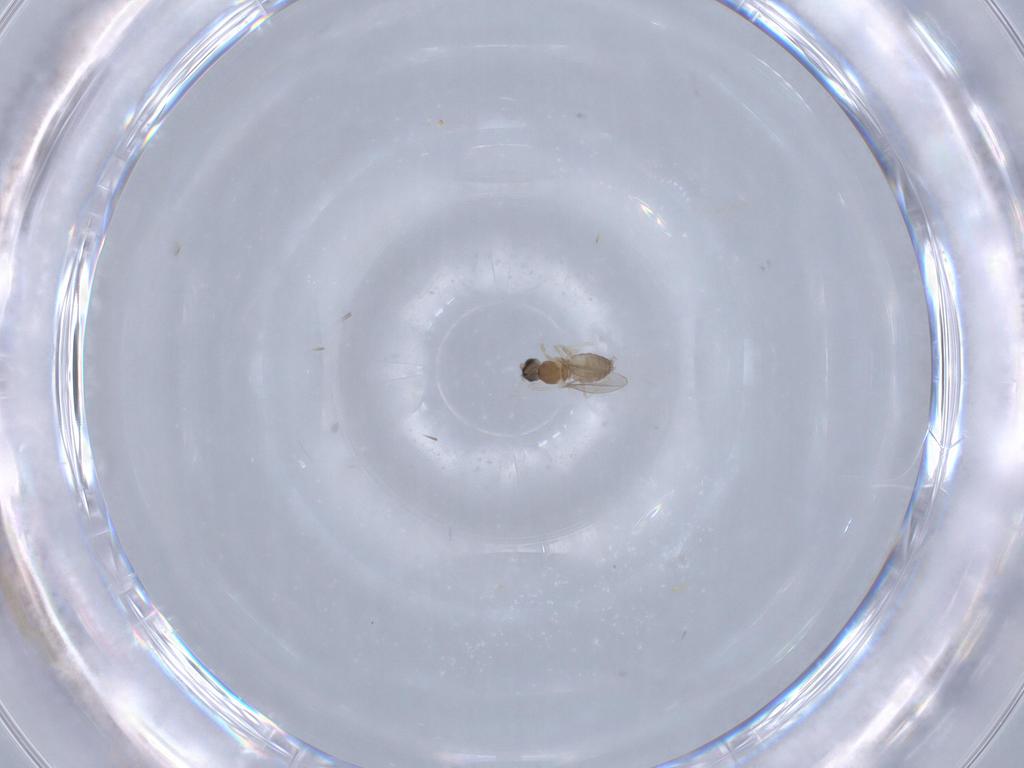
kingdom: Animalia
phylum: Arthropoda
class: Insecta
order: Diptera
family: Cecidomyiidae
